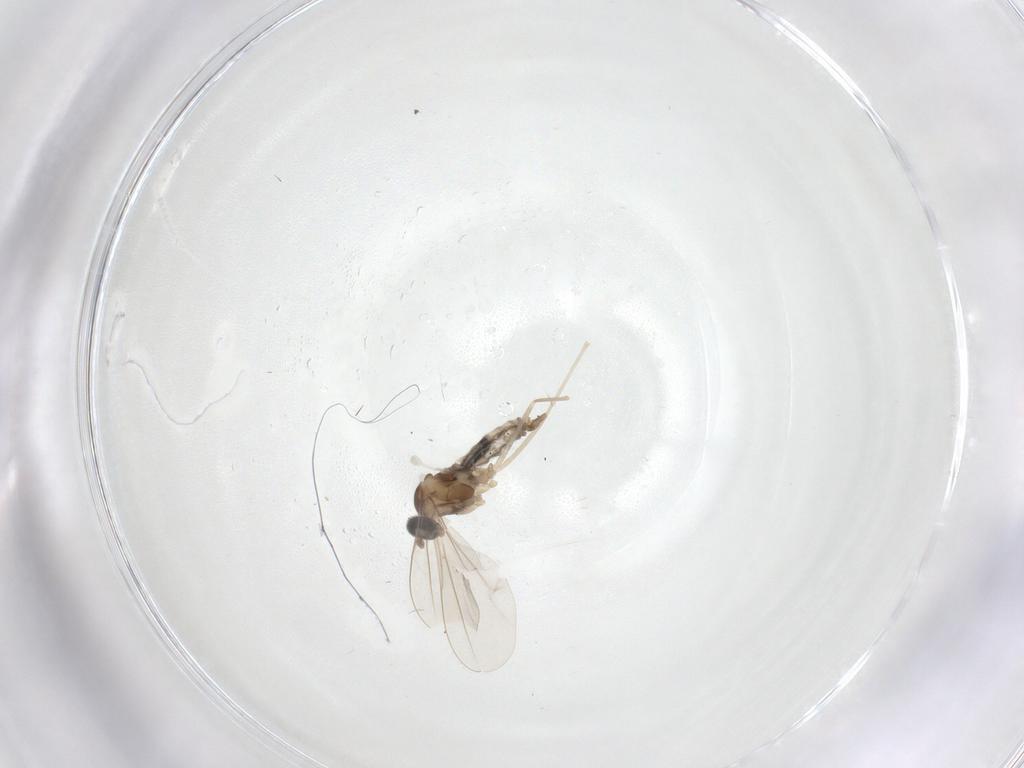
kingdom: Animalia
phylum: Arthropoda
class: Insecta
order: Diptera
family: Cecidomyiidae
